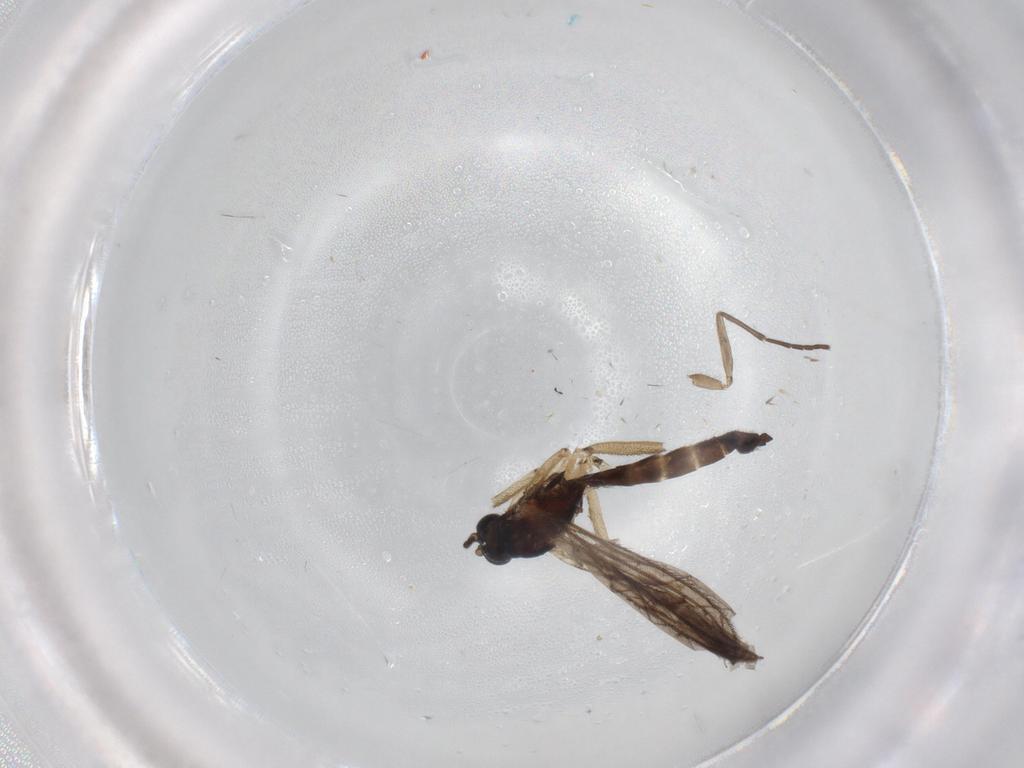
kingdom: Animalia
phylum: Arthropoda
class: Insecta
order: Diptera
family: Sciaridae
